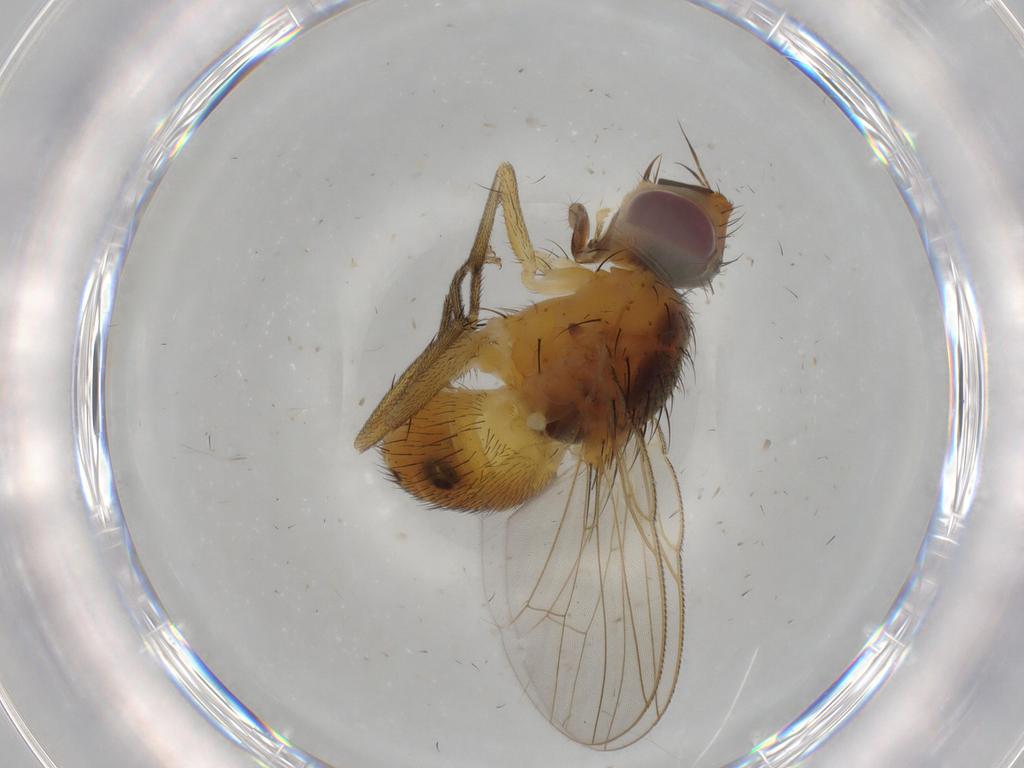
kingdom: Animalia
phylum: Arthropoda
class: Insecta
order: Diptera
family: Muscidae
